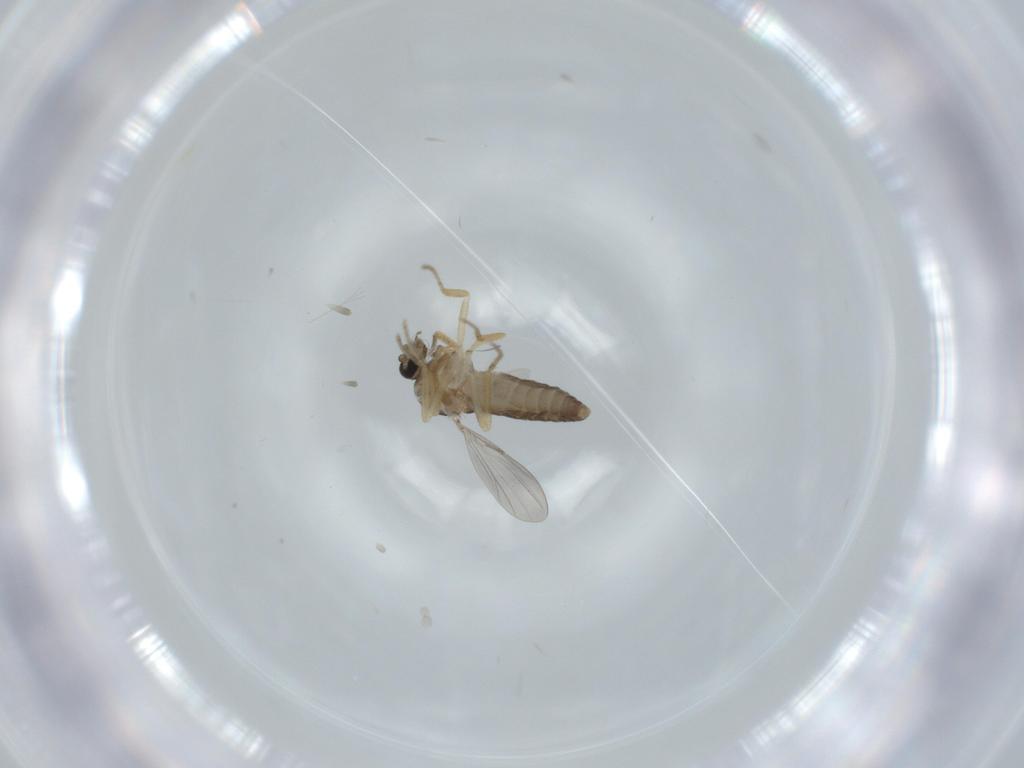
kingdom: Animalia
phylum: Arthropoda
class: Insecta
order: Diptera
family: Ceratopogonidae
